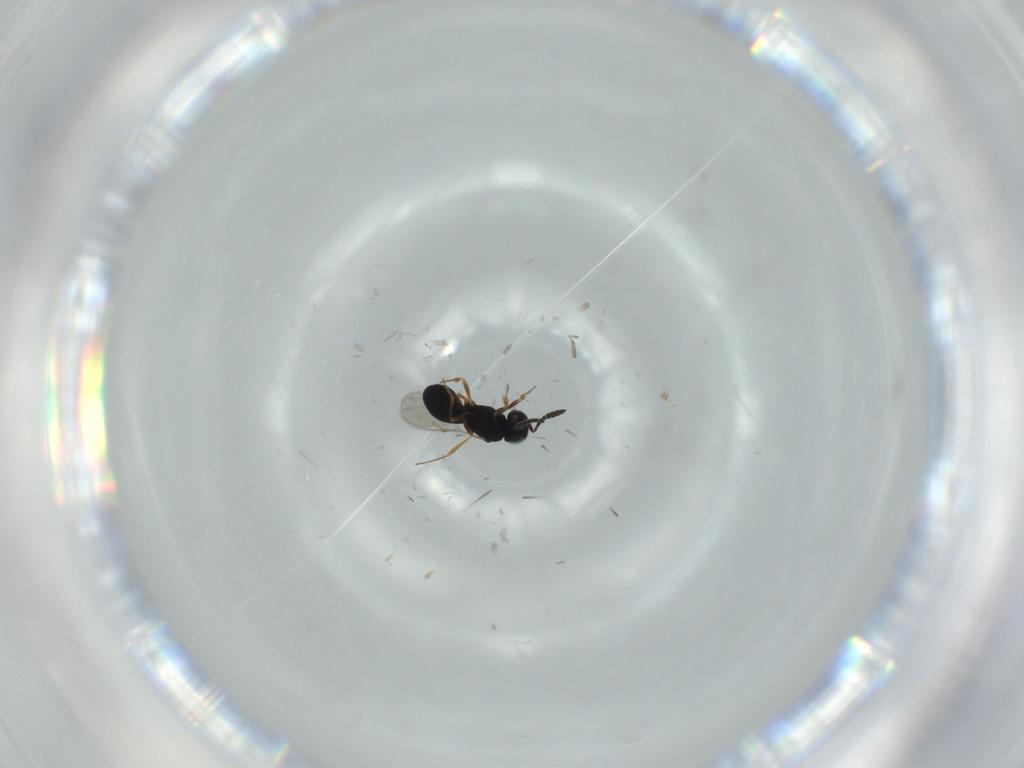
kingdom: Animalia
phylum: Arthropoda
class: Insecta
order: Hymenoptera
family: Scelionidae
